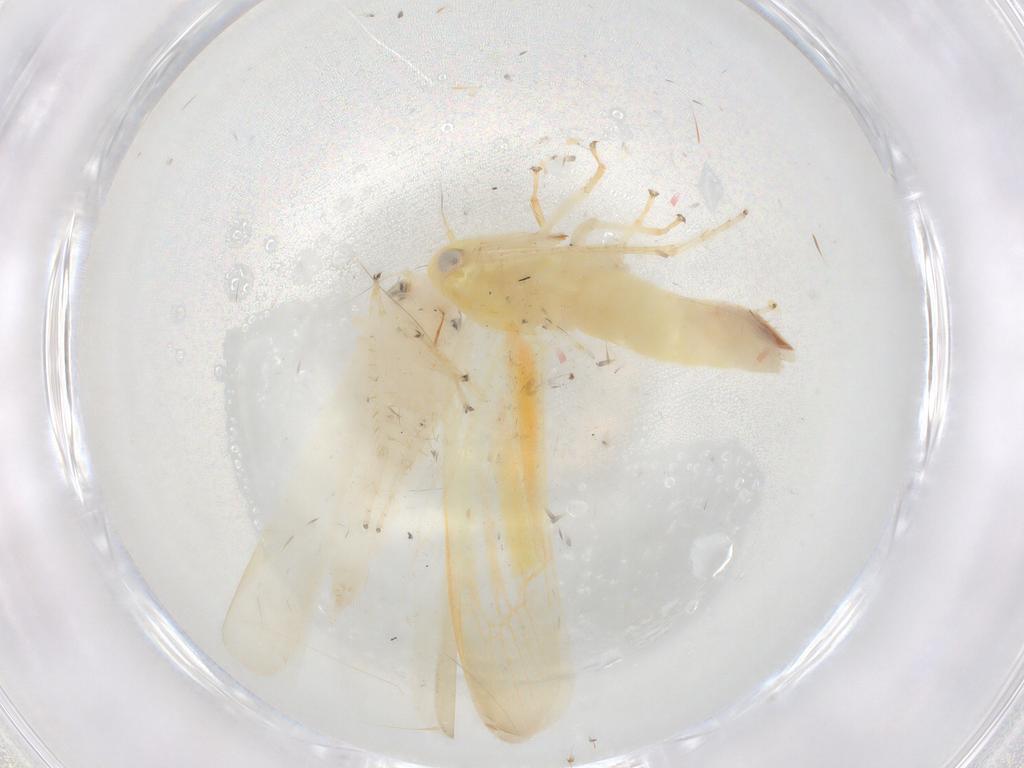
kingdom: Animalia
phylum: Arthropoda
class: Insecta
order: Hemiptera
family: Cicadellidae
